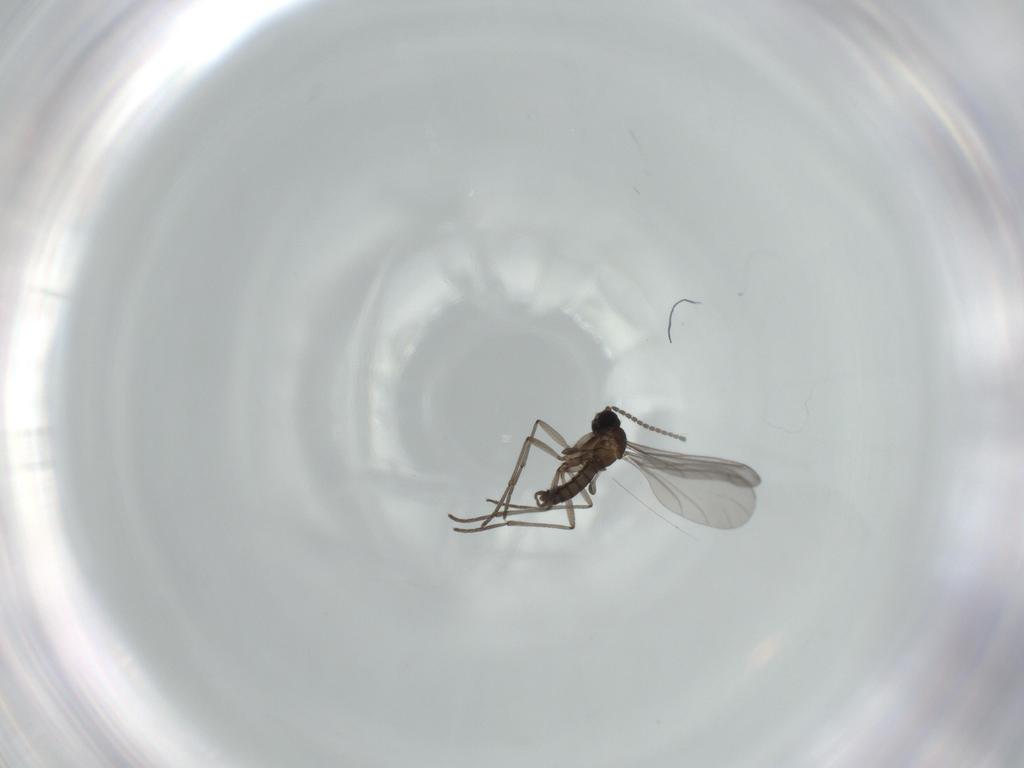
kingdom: Animalia
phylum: Arthropoda
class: Insecta
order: Diptera
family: Sciaridae
